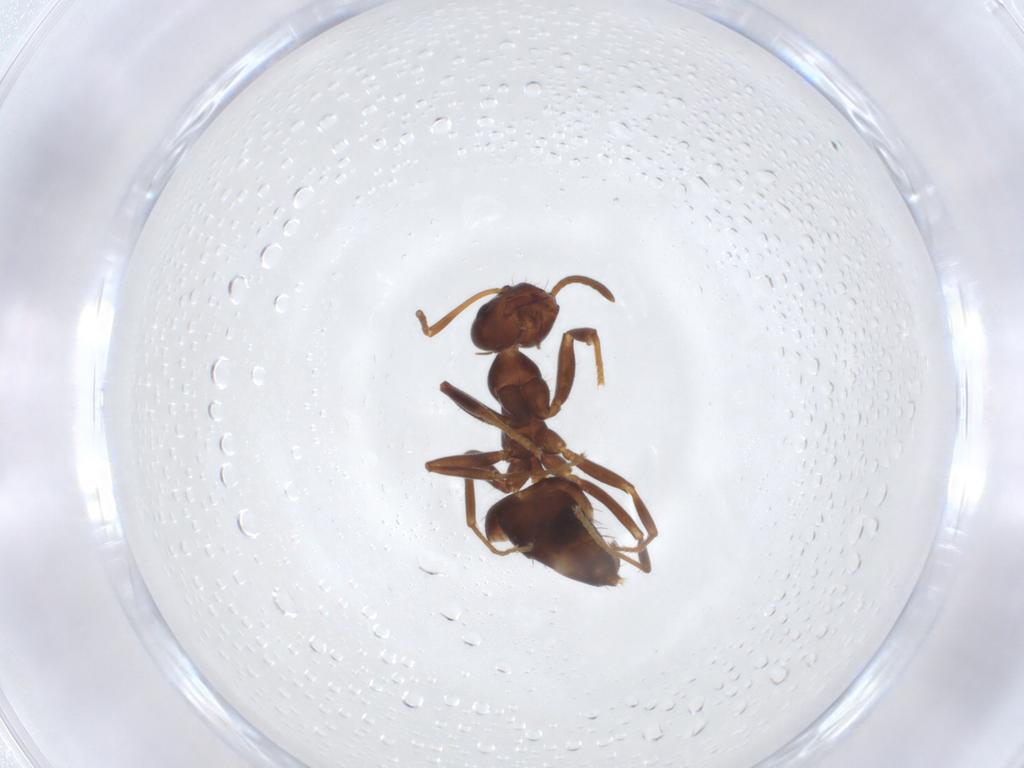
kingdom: Animalia
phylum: Arthropoda
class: Insecta
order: Hymenoptera
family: Formicidae
